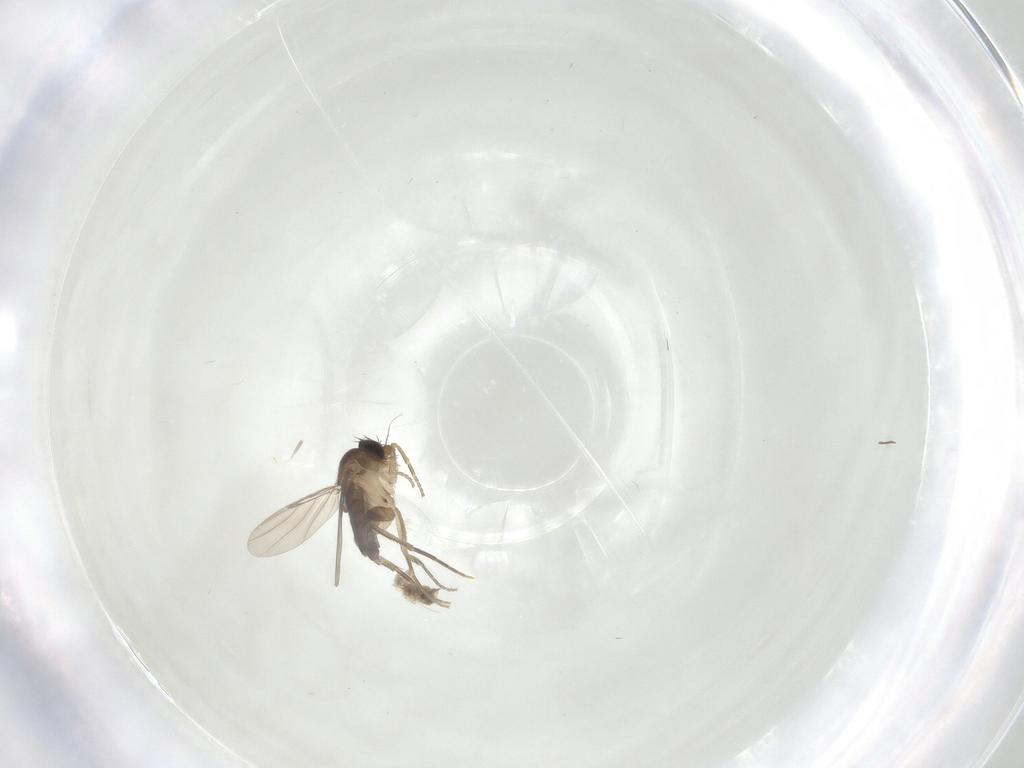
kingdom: Animalia
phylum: Arthropoda
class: Insecta
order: Diptera
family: Phoridae
